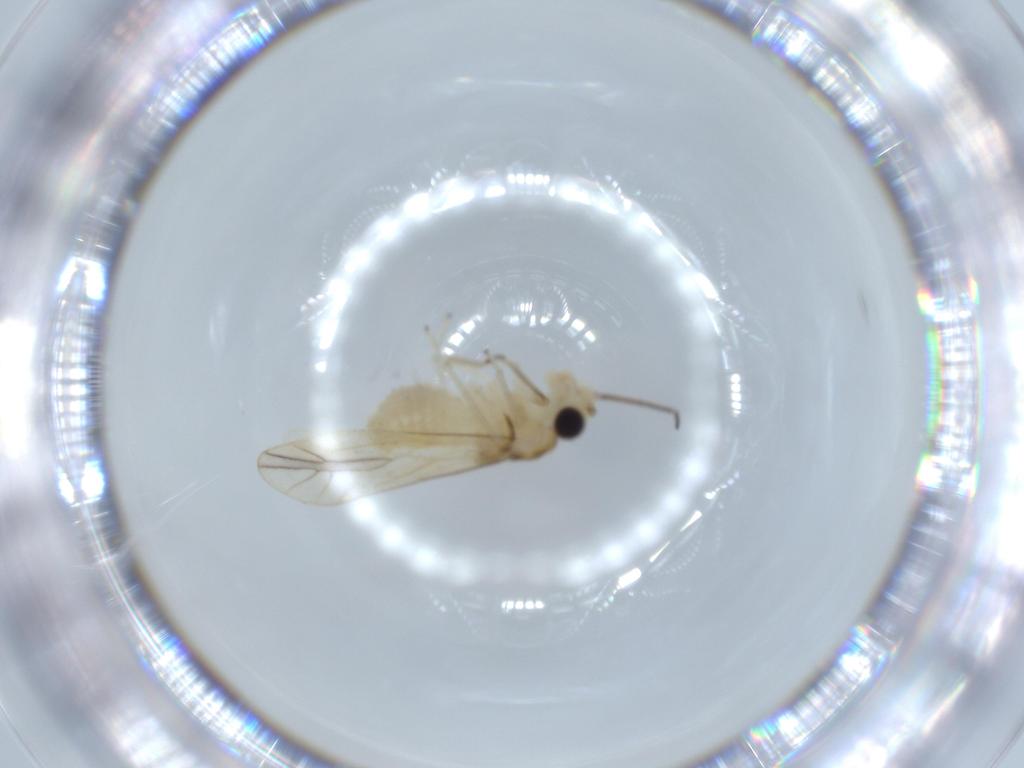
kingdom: Animalia
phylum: Arthropoda
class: Insecta
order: Psocodea
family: Caeciliusidae
